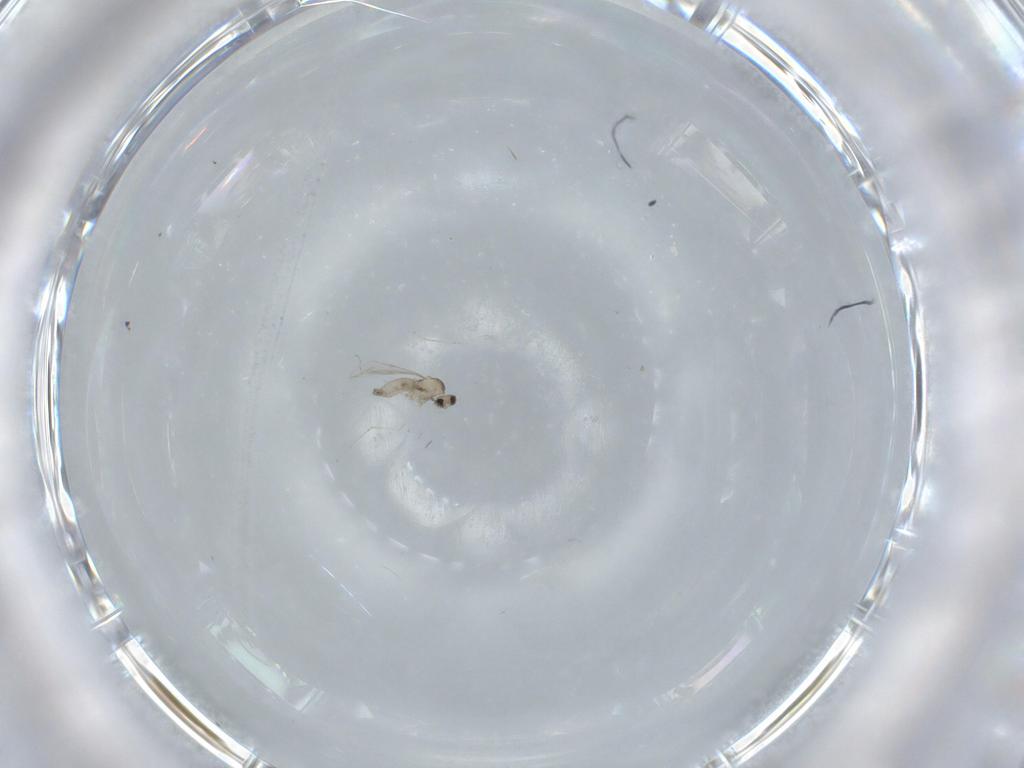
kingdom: Animalia
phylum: Arthropoda
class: Insecta
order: Diptera
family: Cecidomyiidae
